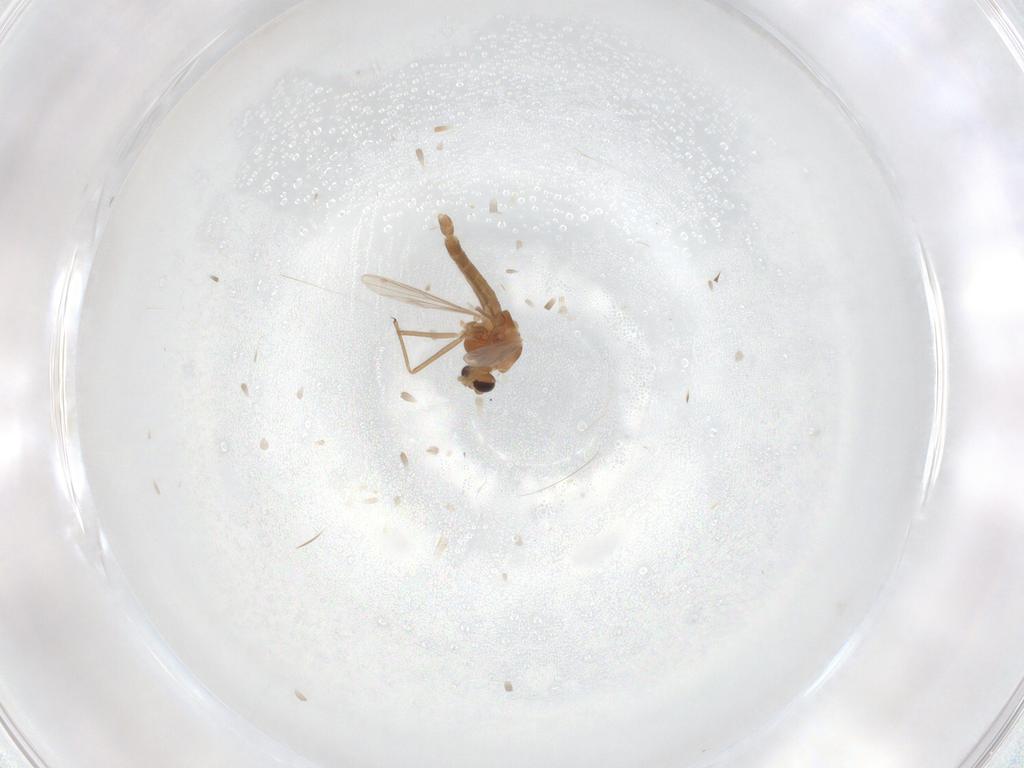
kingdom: Animalia
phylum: Arthropoda
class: Insecta
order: Diptera
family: Chironomidae
